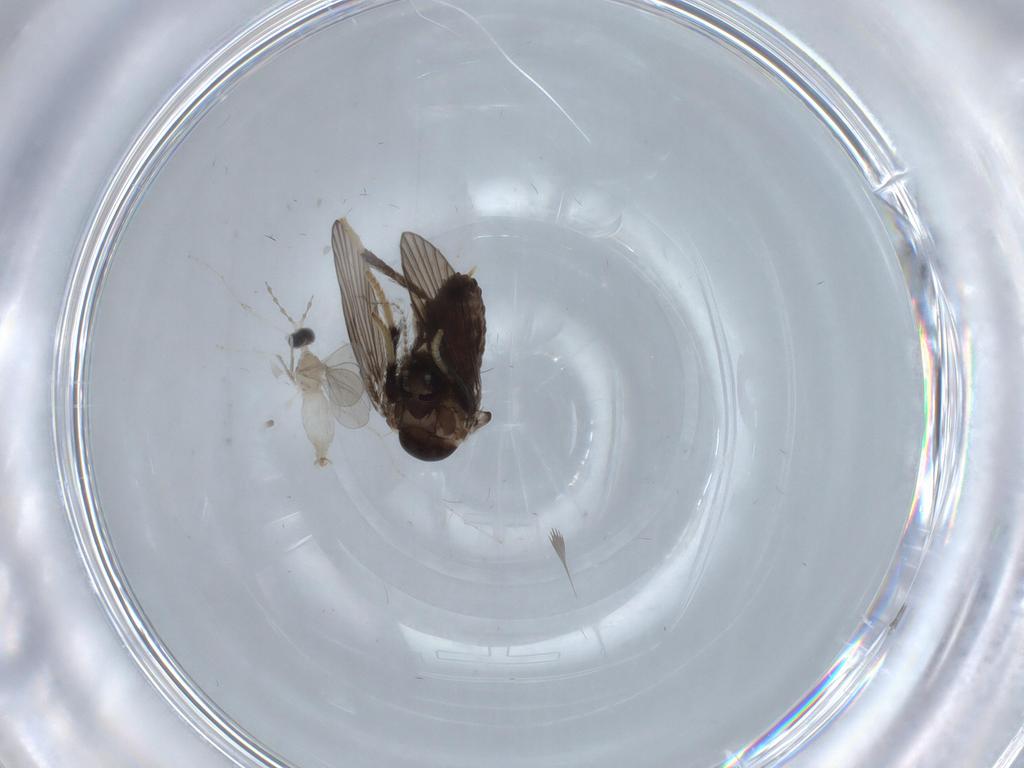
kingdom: Animalia
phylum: Arthropoda
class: Insecta
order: Diptera
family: Psychodidae
